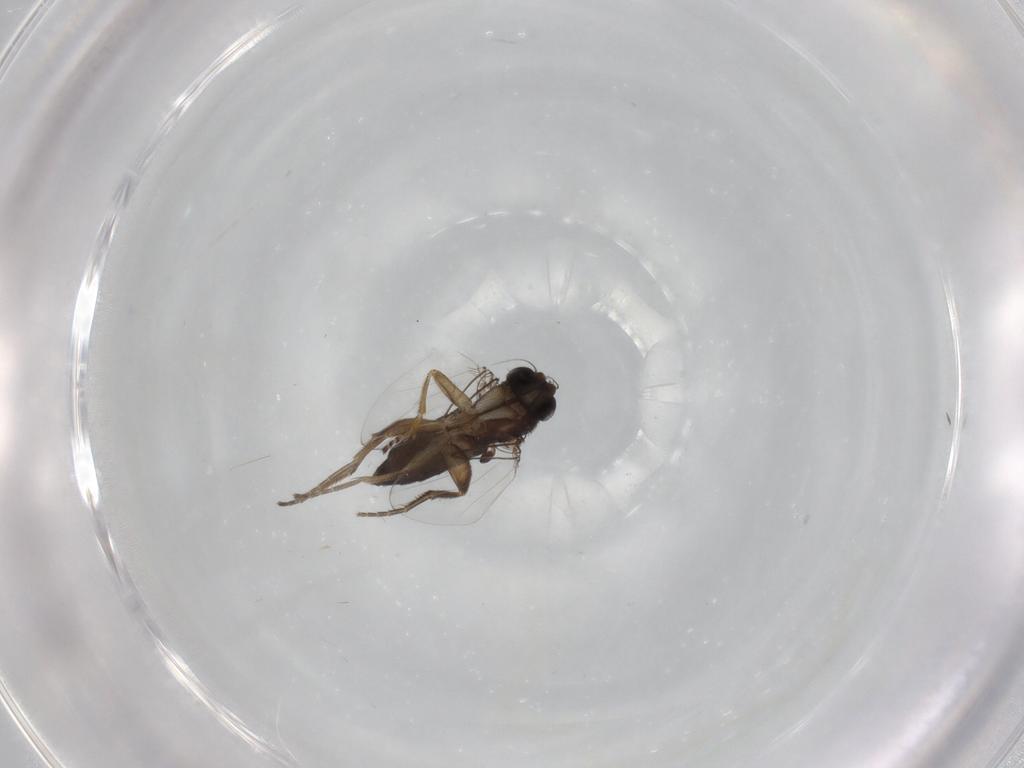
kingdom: Animalia
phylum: Arthropoda
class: Insecta
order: Diptera
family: Phoridae
